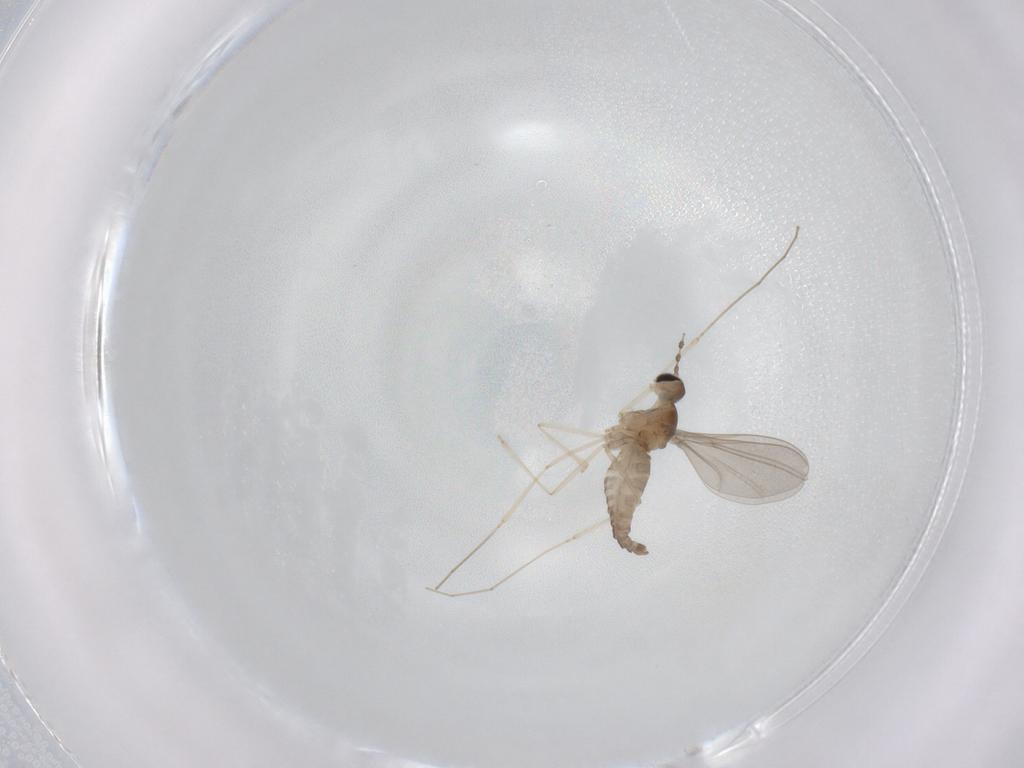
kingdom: Animalia
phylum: Arthropoda
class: Insecta
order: Diptera
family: Cecidomyiidae
